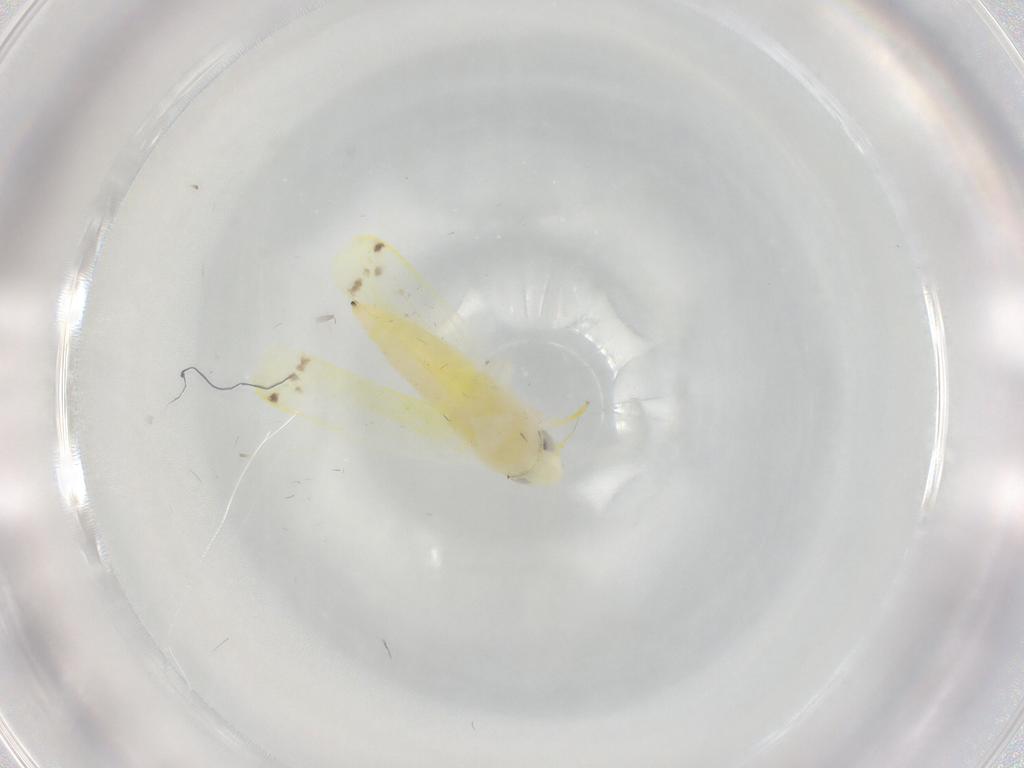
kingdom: Animalia
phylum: Arthropoda
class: Insecta
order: Hemiptera
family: Cicadellidae
